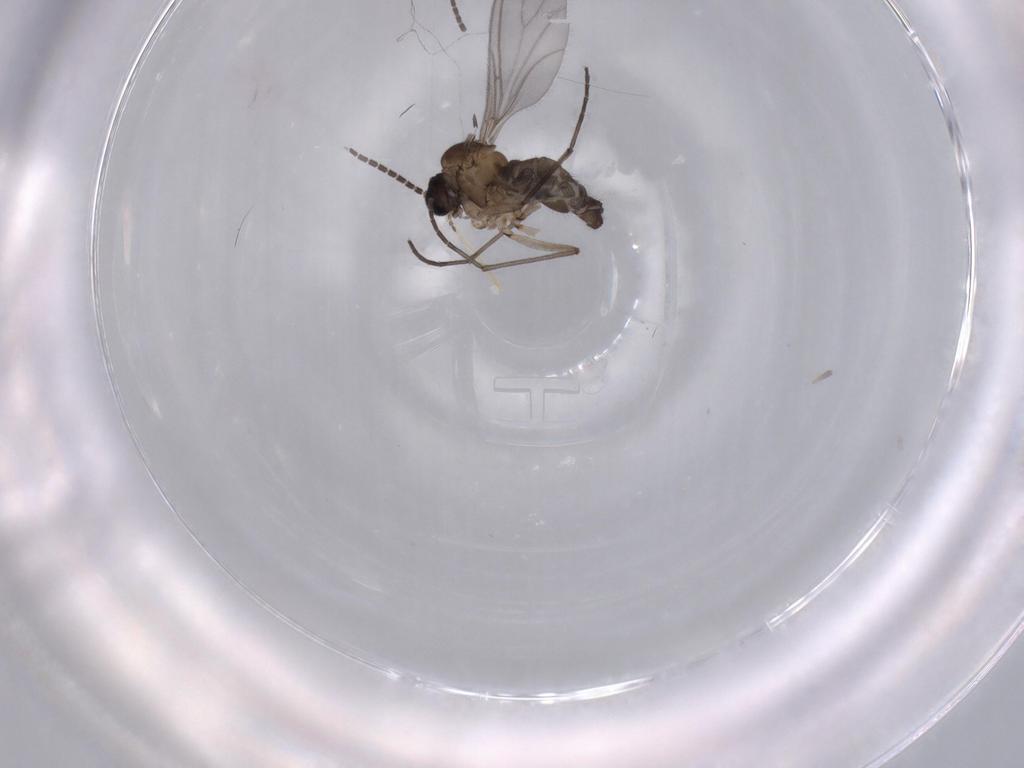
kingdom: Animalia
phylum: Arthropoda
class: Insecta
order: Diptera
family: Sciaridae
